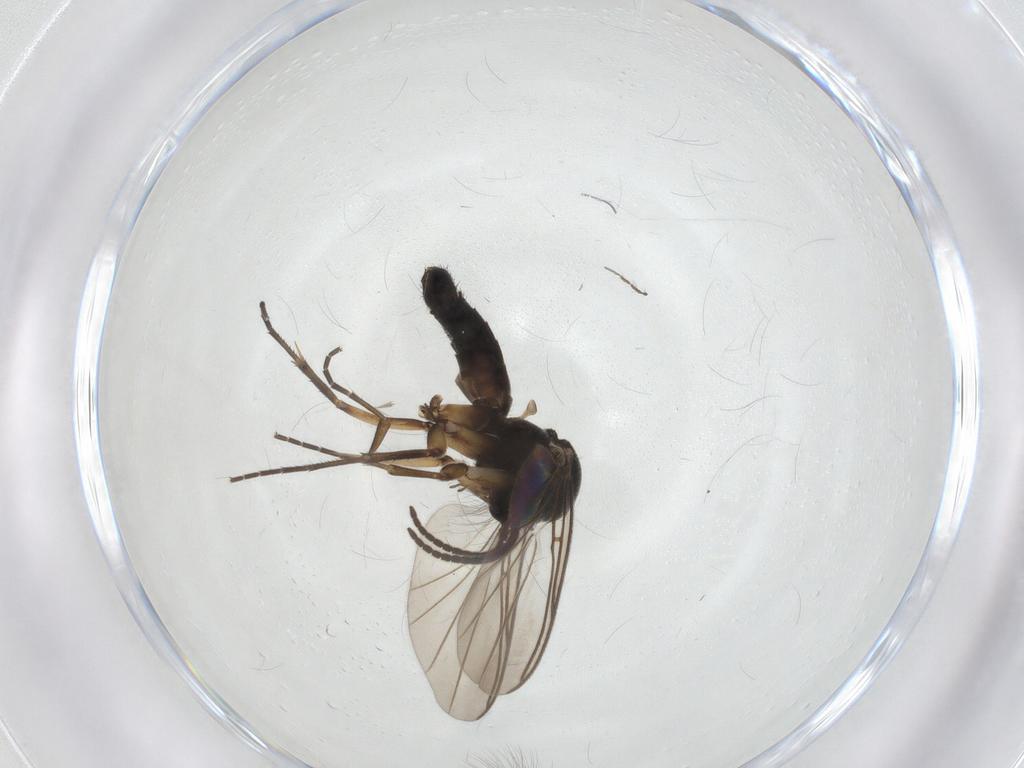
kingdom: Animalia
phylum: Arthropoda
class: Insecta
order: Diptera
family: Mycetophilidae
